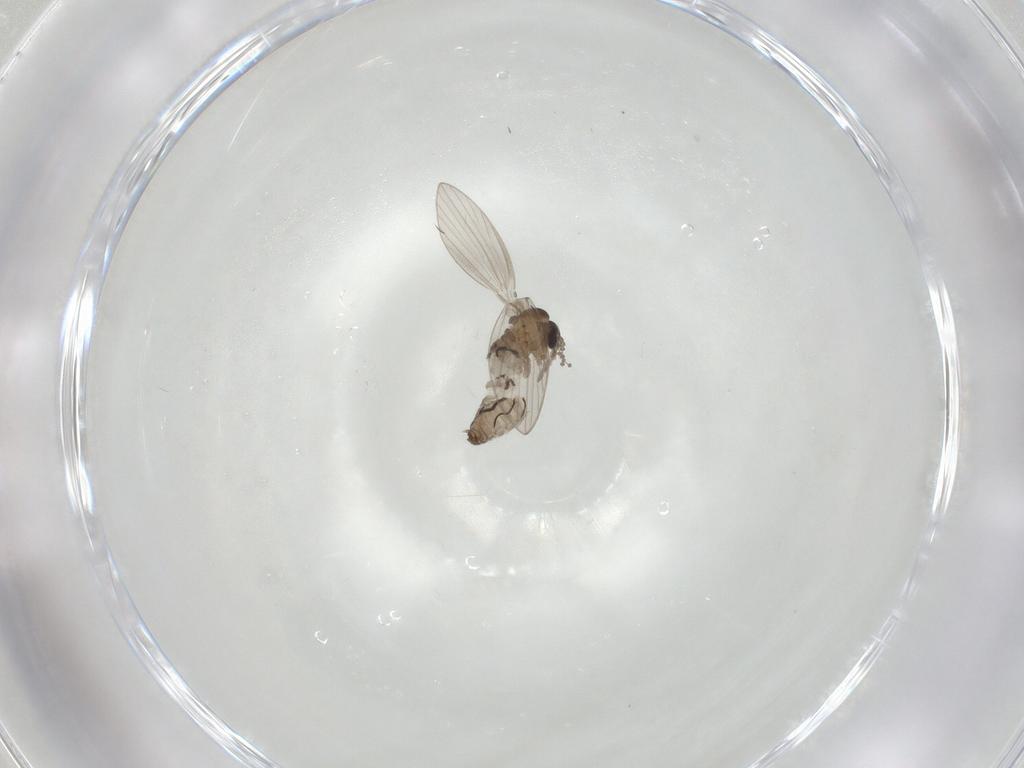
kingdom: Animalia
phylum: Arthropoda
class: Insecta
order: Diptera
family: Psychodidae
